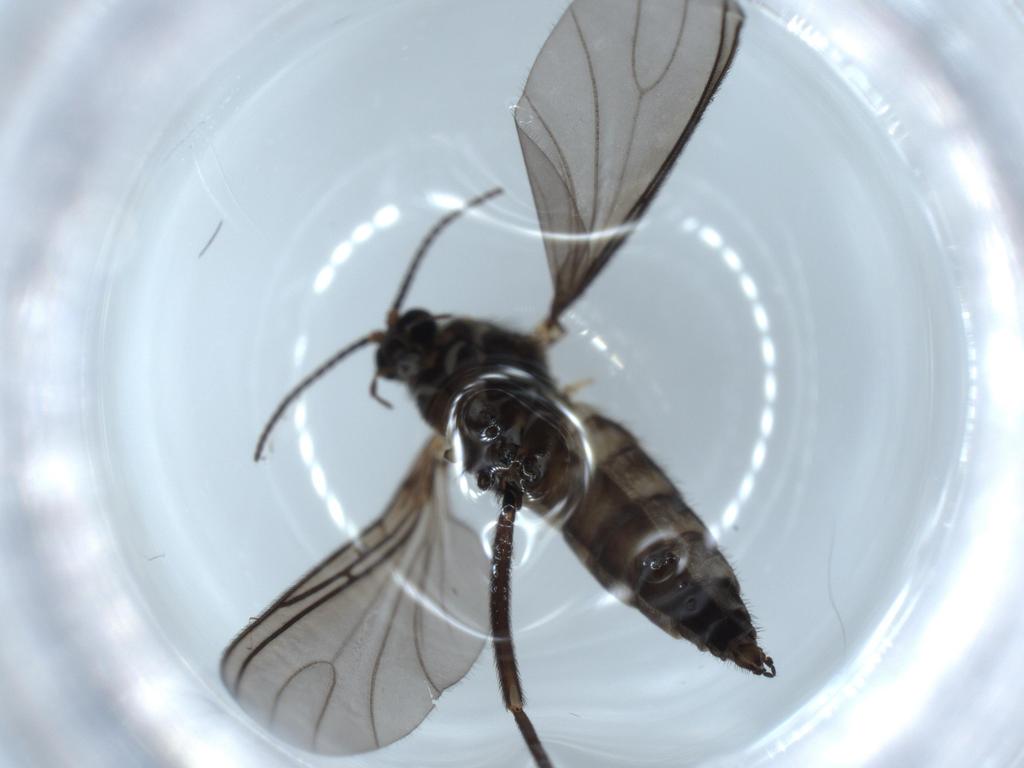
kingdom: Animalia
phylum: Arthropoda
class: Insecta
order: Diptera
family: Sciaridae
